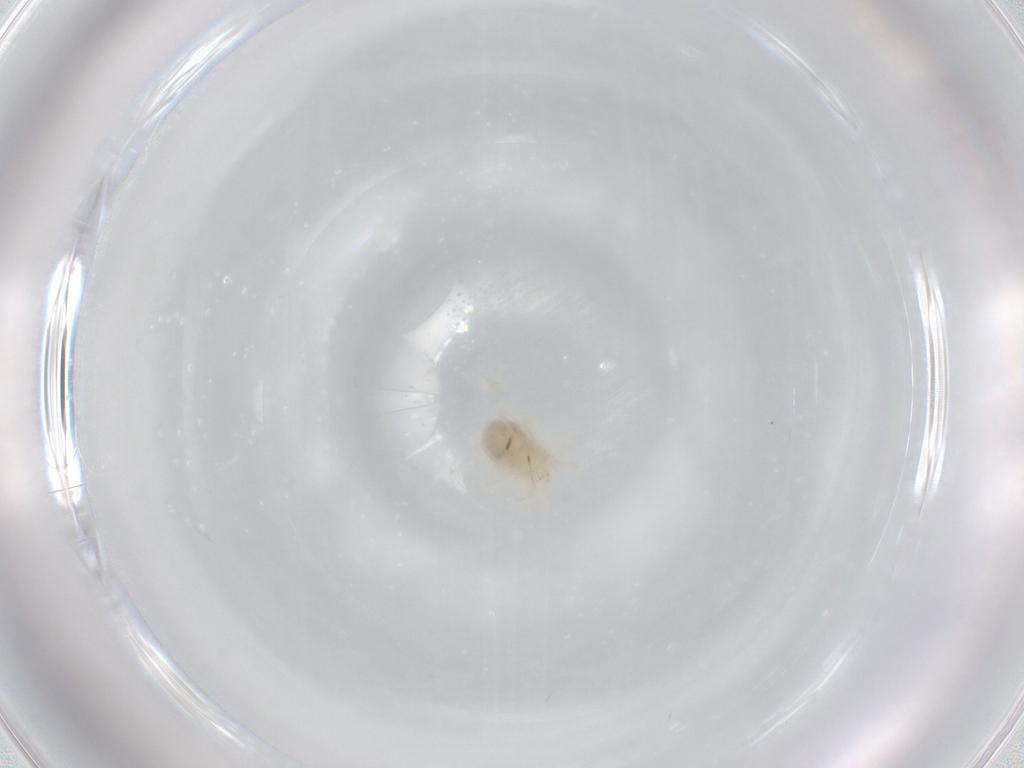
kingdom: Animalia
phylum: Arthropoda
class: Arachnida
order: Trombidiformes
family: Anystidae
